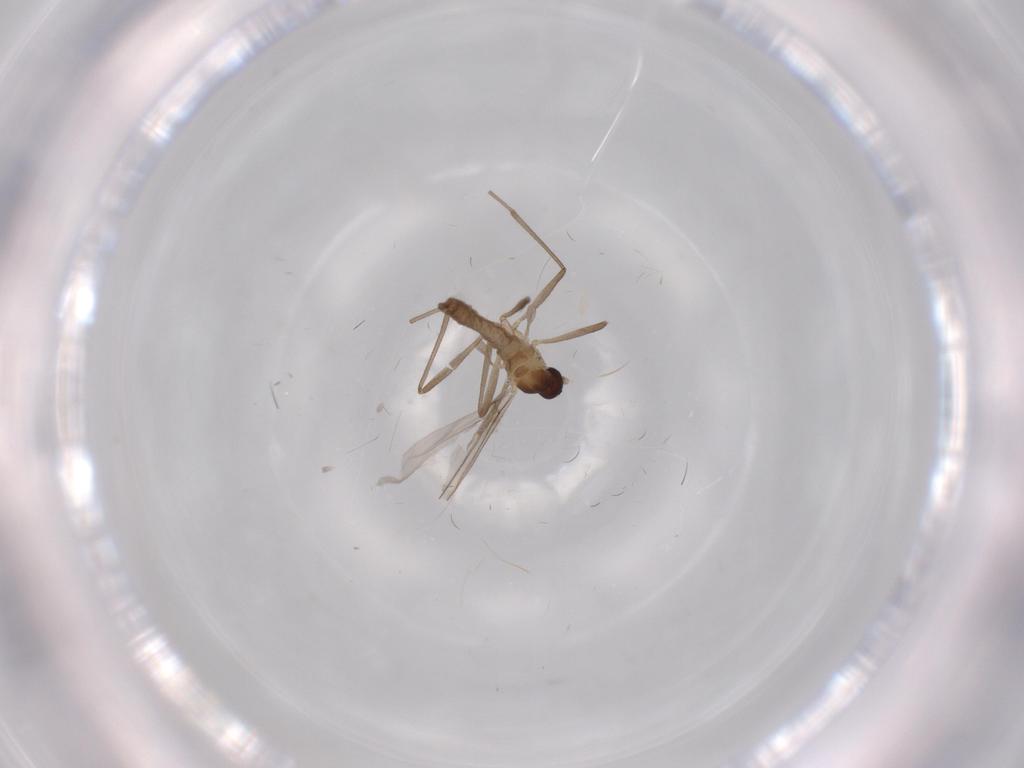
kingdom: Animalia
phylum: Arthropoda
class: Insecta
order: Diptera
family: Cecidomyiidae
